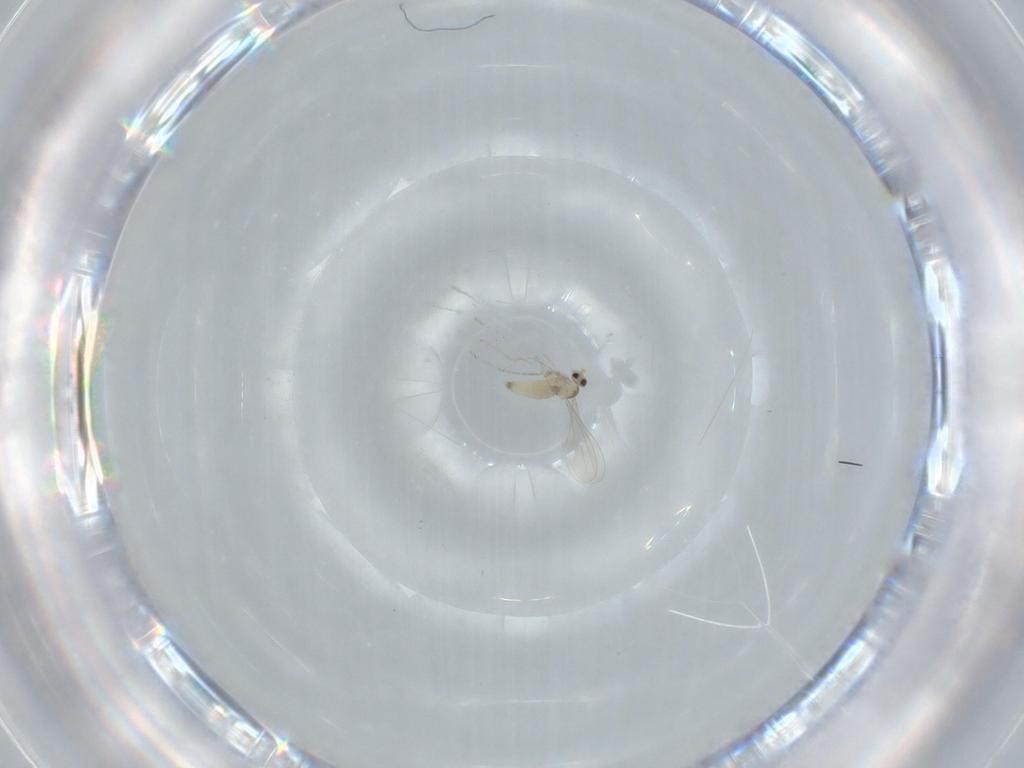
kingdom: Animalia
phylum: Arthropoda
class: Insecta
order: Diptera
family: Cecidomyiidae
